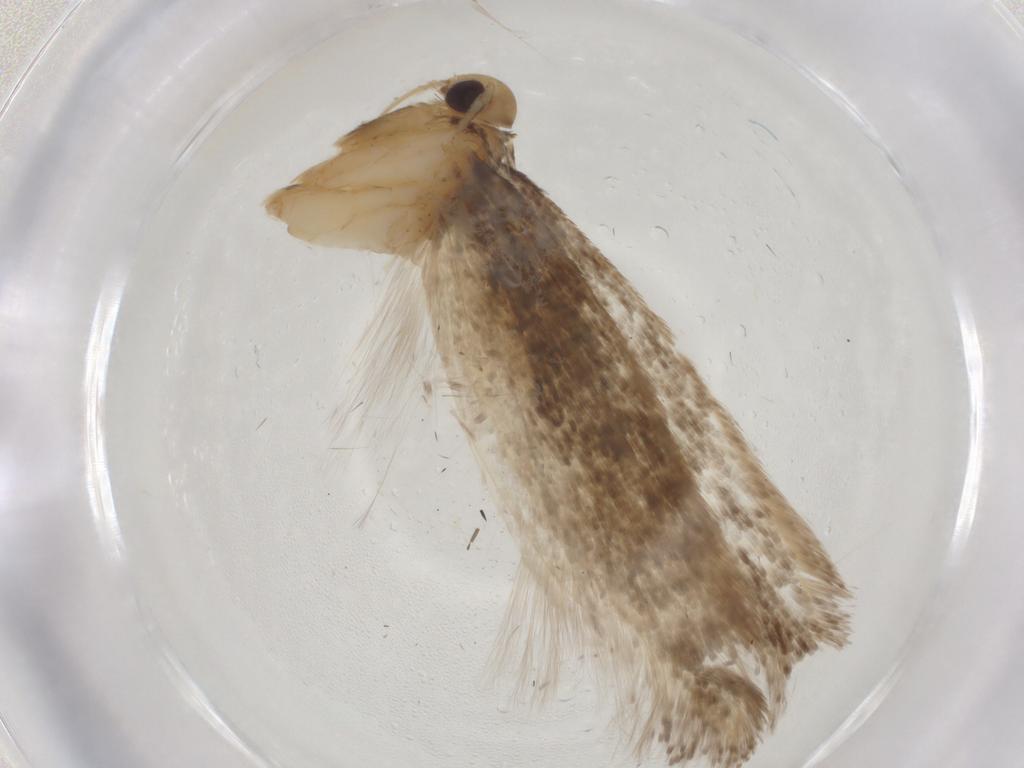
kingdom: Animalia
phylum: Arthropoda
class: Insecta
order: Lepidoptera
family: Gelechiidae
